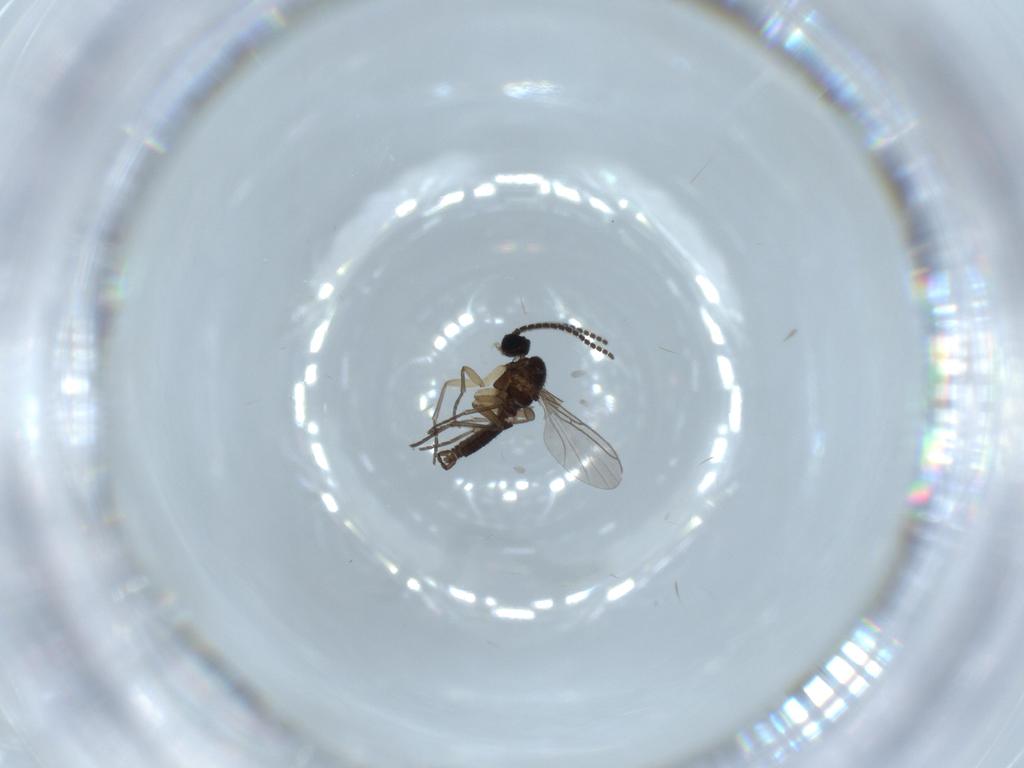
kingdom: Animalia
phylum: Arthropoda
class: Insecta
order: Diptera
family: Sciaridae
